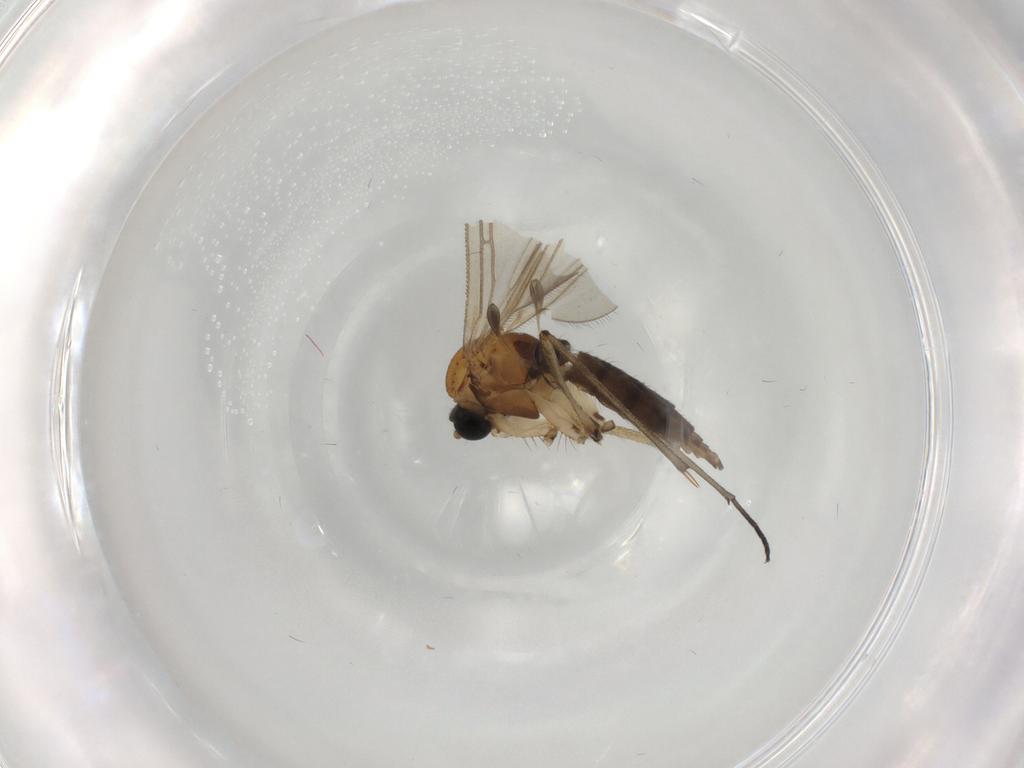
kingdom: Animalia
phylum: Arthropoda
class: Insecta
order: Diptera
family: Sciaridae
